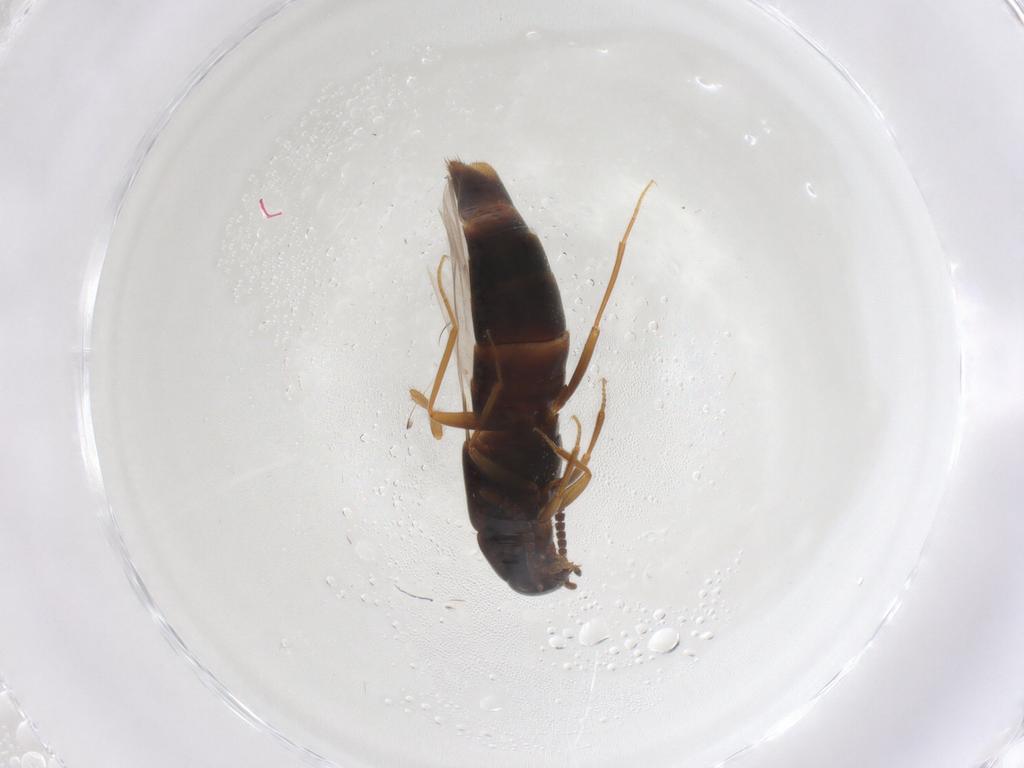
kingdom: Animalia
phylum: Arthropoda
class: Insecta
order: Coleoptera
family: Staphylinidae
